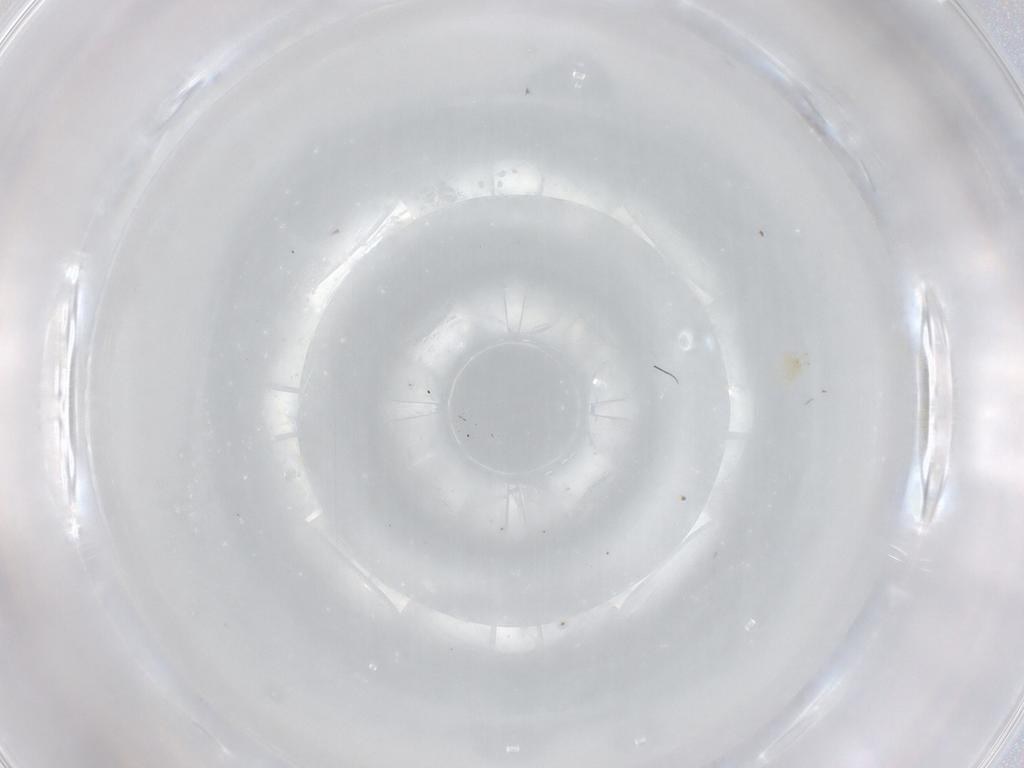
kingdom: Animalia
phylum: Arthropoda
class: Arachnida
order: Trombidiformes
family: Cunaxidae
